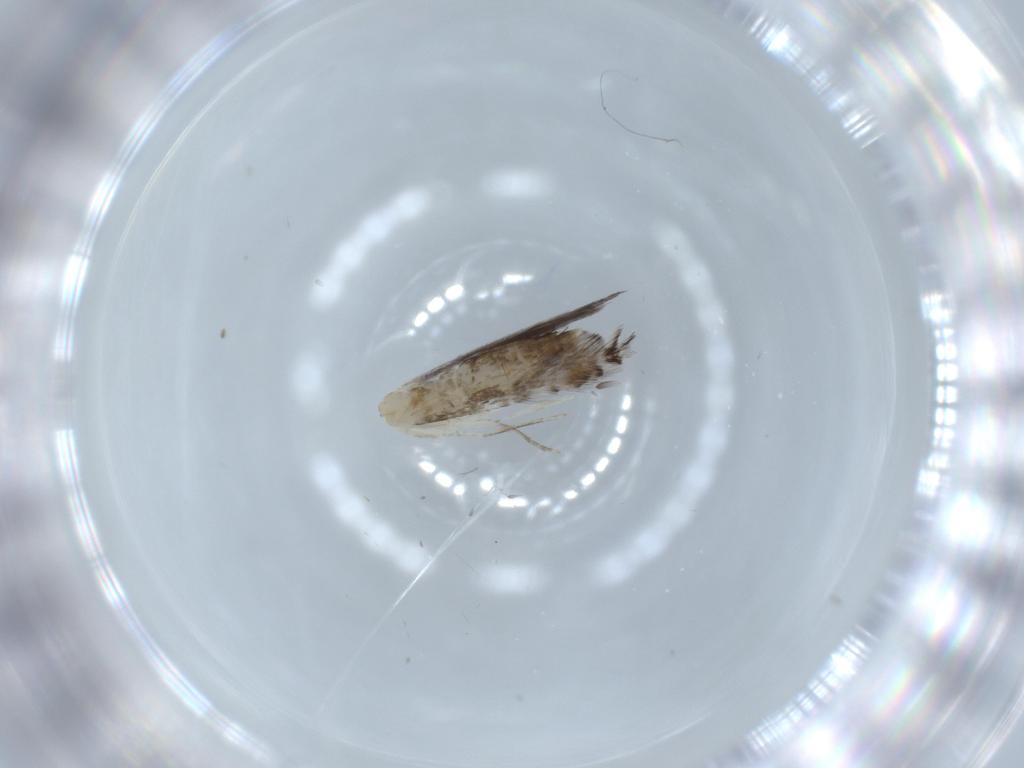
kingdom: Animalia
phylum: Arthropoda
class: Insecta
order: Lepidoptera
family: Gracillariidae
